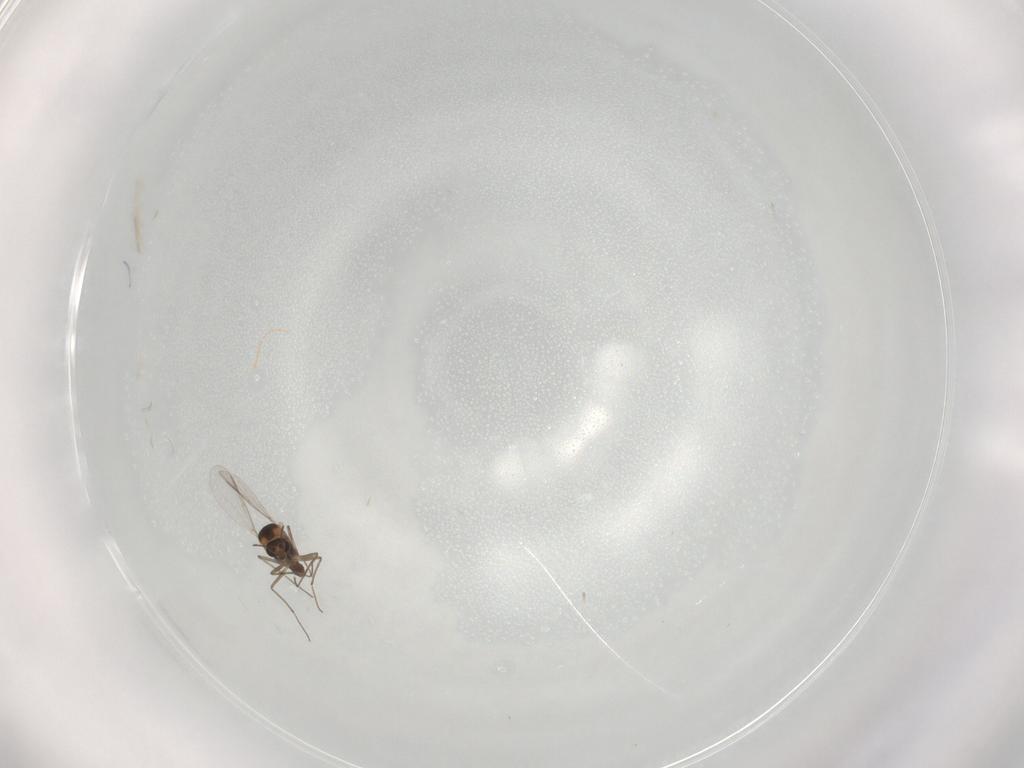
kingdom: Animalia
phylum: Arthropoda
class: Insecta
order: Diptera
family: Chironomidae
